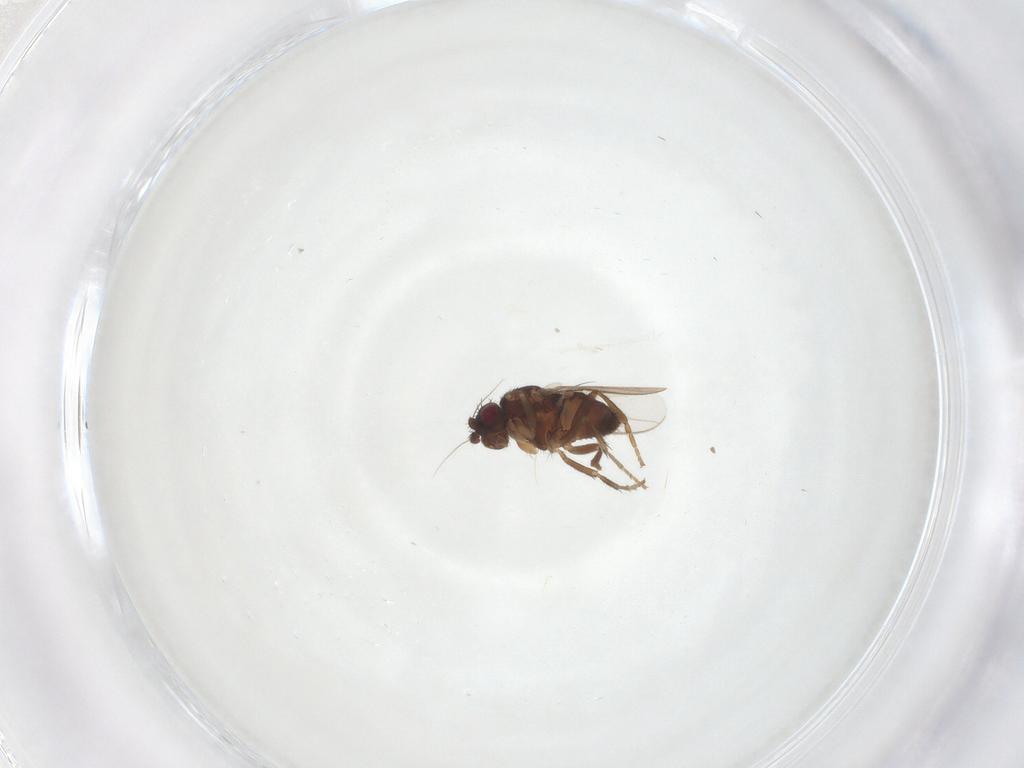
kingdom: Animalia
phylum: Arthropoda
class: Insecta
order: Diptera
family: Sphaeroceridae
